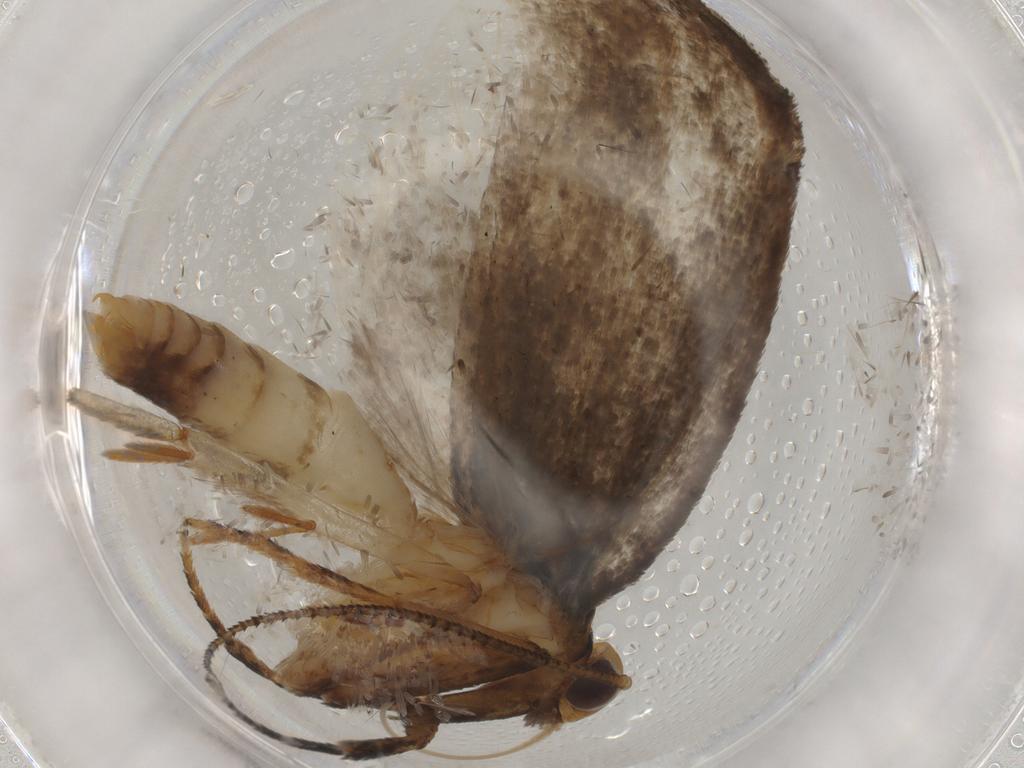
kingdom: Animalia
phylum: Arthropoda
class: Insecta
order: Lepidoptera
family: Oecophoridae
